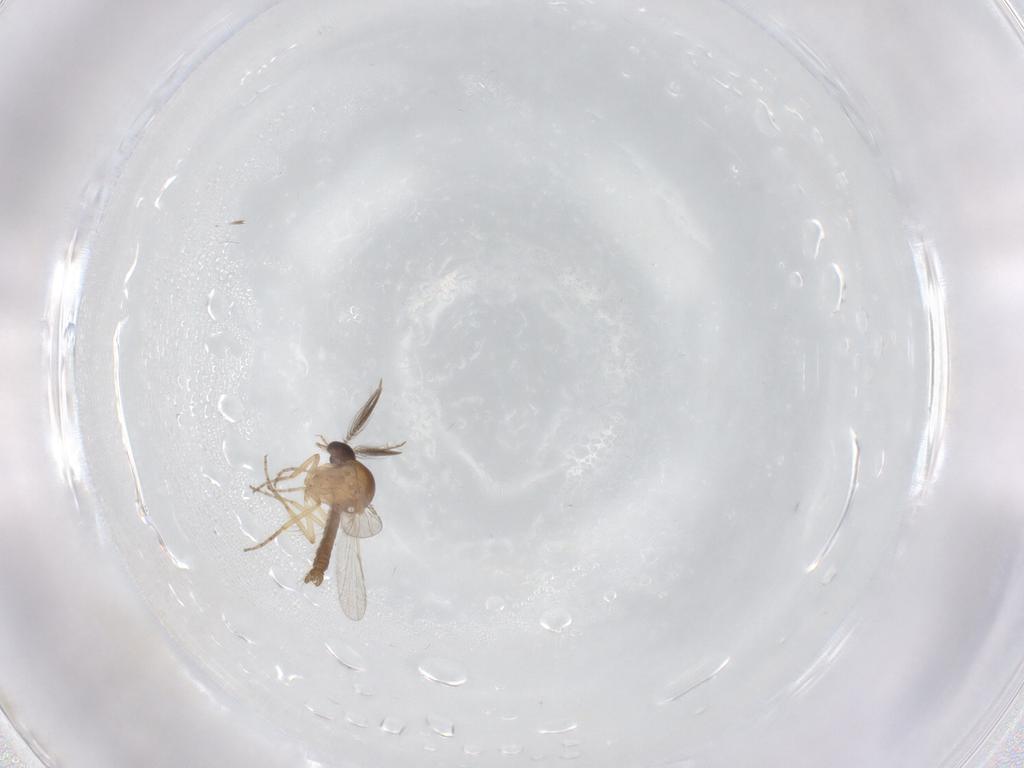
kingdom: Animalia
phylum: Arthropoda
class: Insecta
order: Diptera
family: Ceratopogonidae
